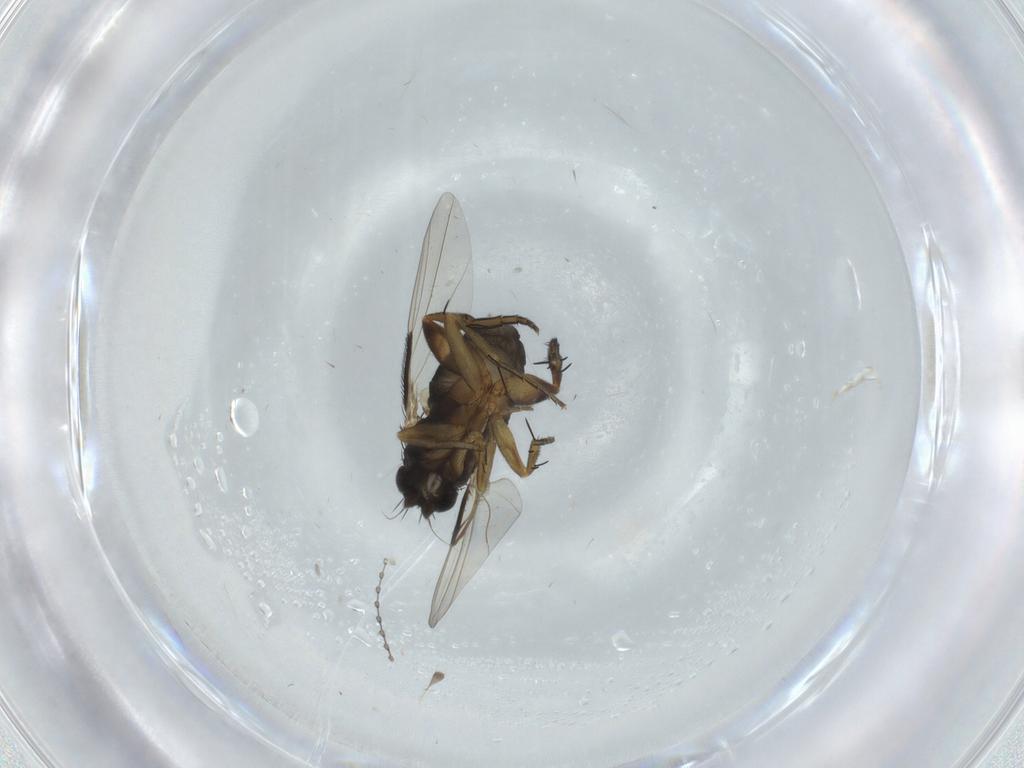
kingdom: Animalia
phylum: Arthropoda
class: Insecta
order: Diptera
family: Phoridae
